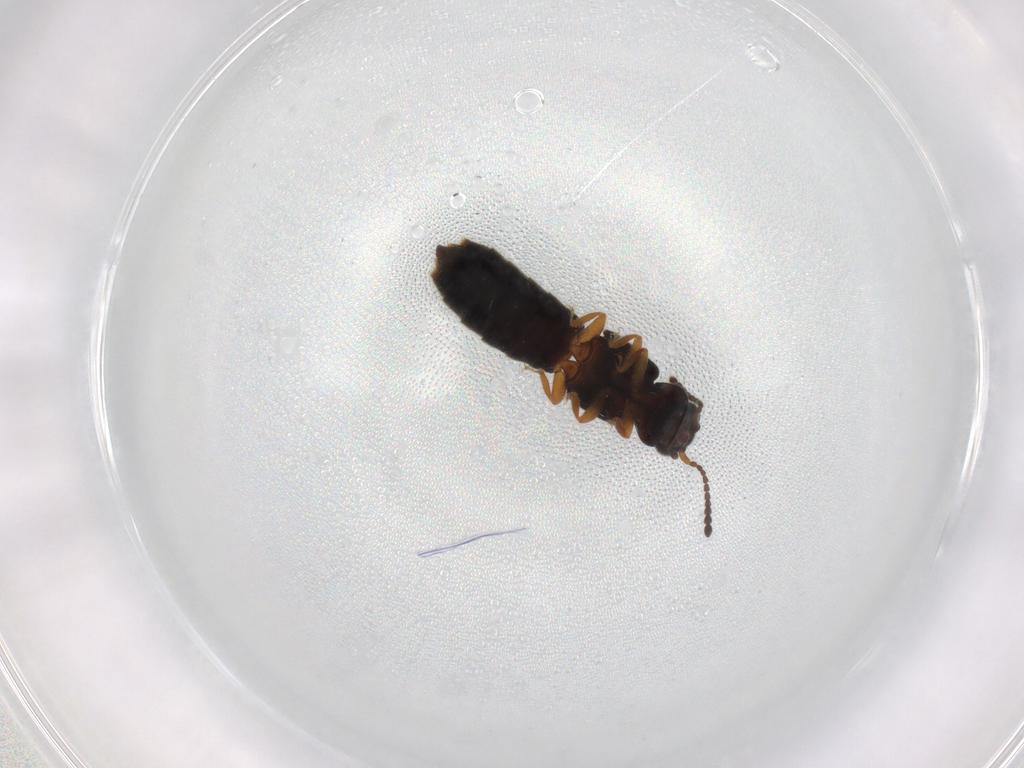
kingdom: Animalia
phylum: Arthropoda
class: Insecta
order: Coleoptera
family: Staphylinidae
